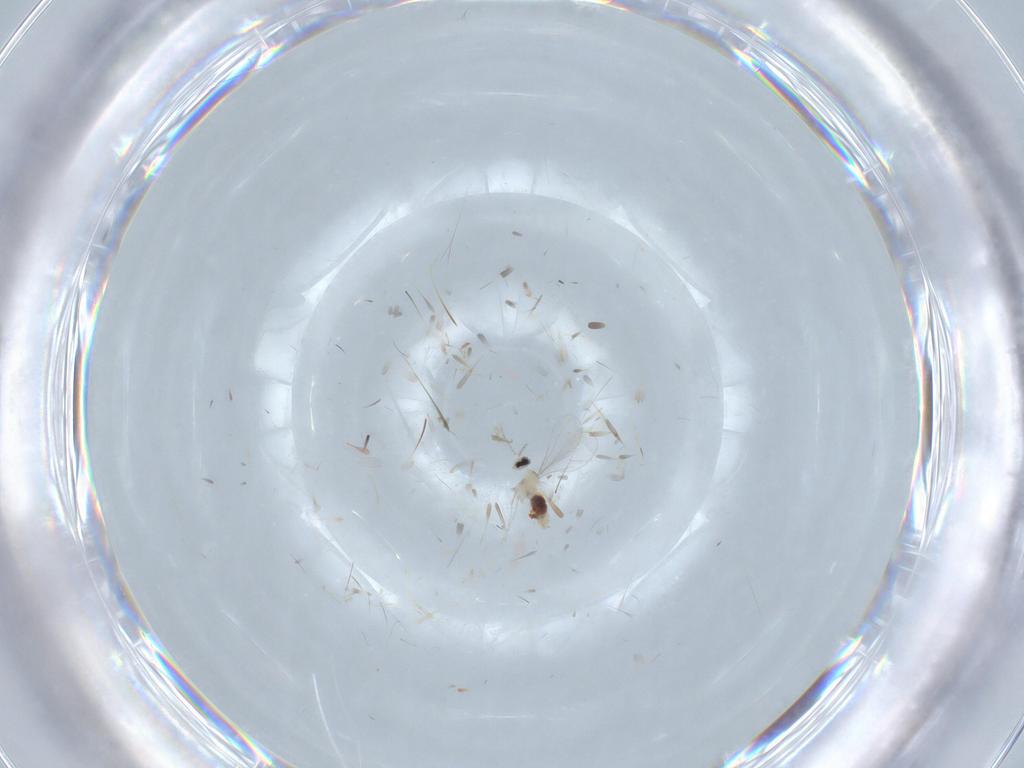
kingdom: Animalia
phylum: Arthropoda
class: Insecta
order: Diptera
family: Cecidomyiidae
